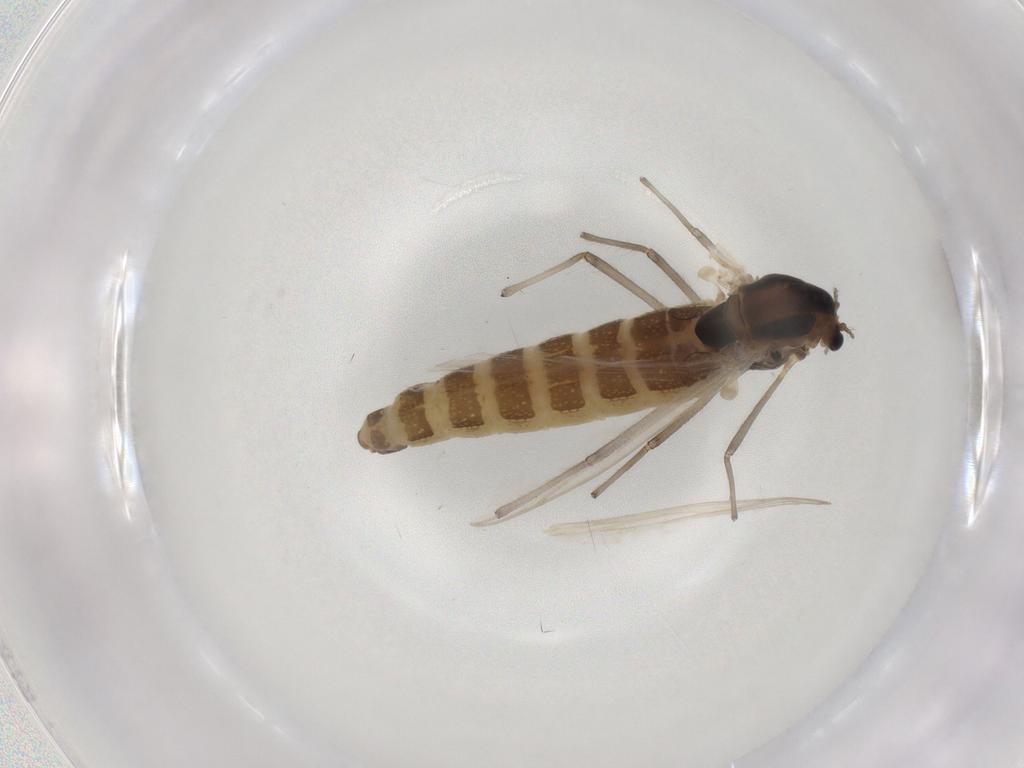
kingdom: Animalia
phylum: Arthropoda
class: Insecta
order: Diptera
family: Chironomidae
